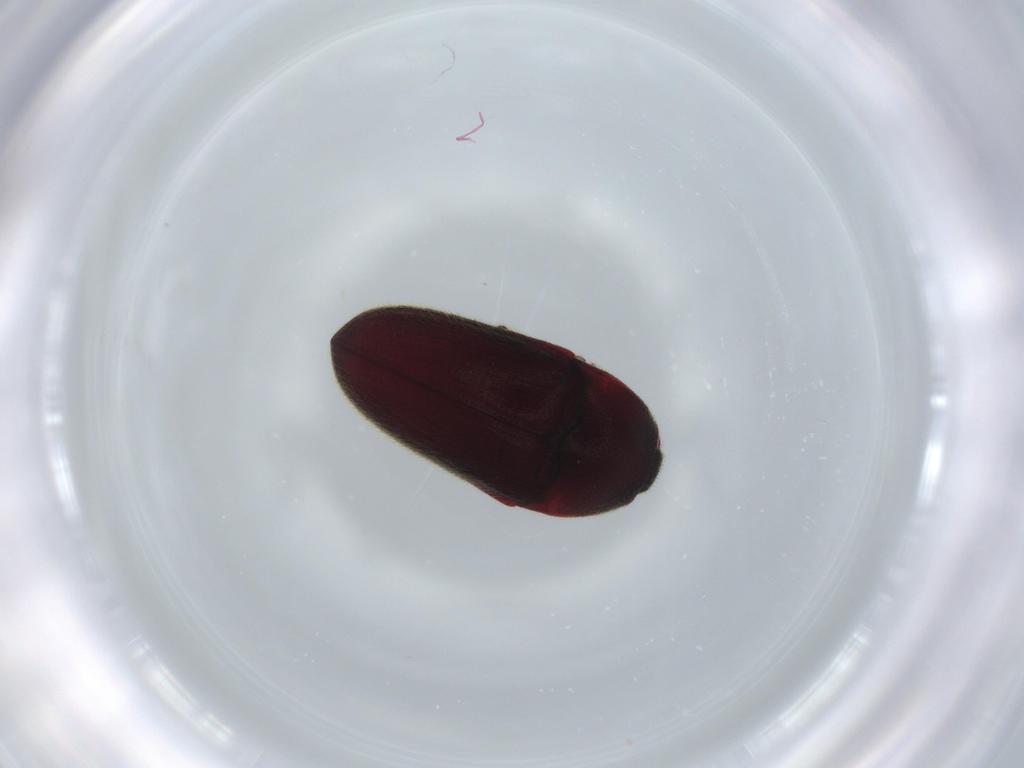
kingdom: Animalia
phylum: Arthropoda
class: Insecta
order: Coleoptera
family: Throscidae
